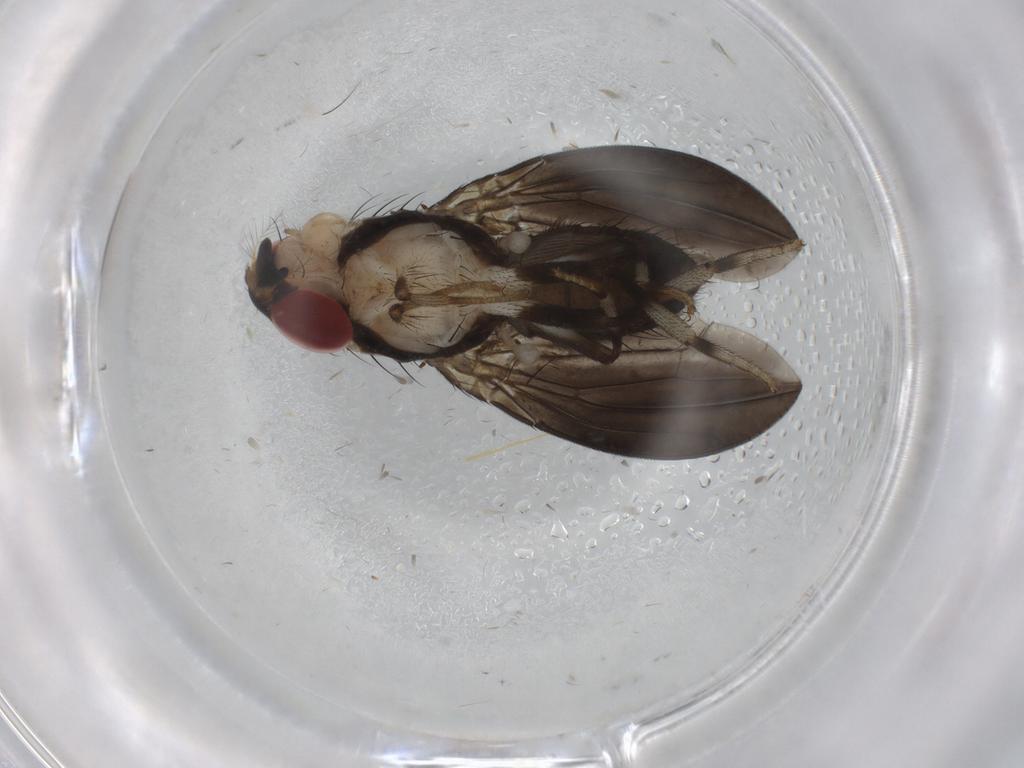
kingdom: Animalia
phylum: Arthropoda
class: Insecta
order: Diptera
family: Drosophilidae
